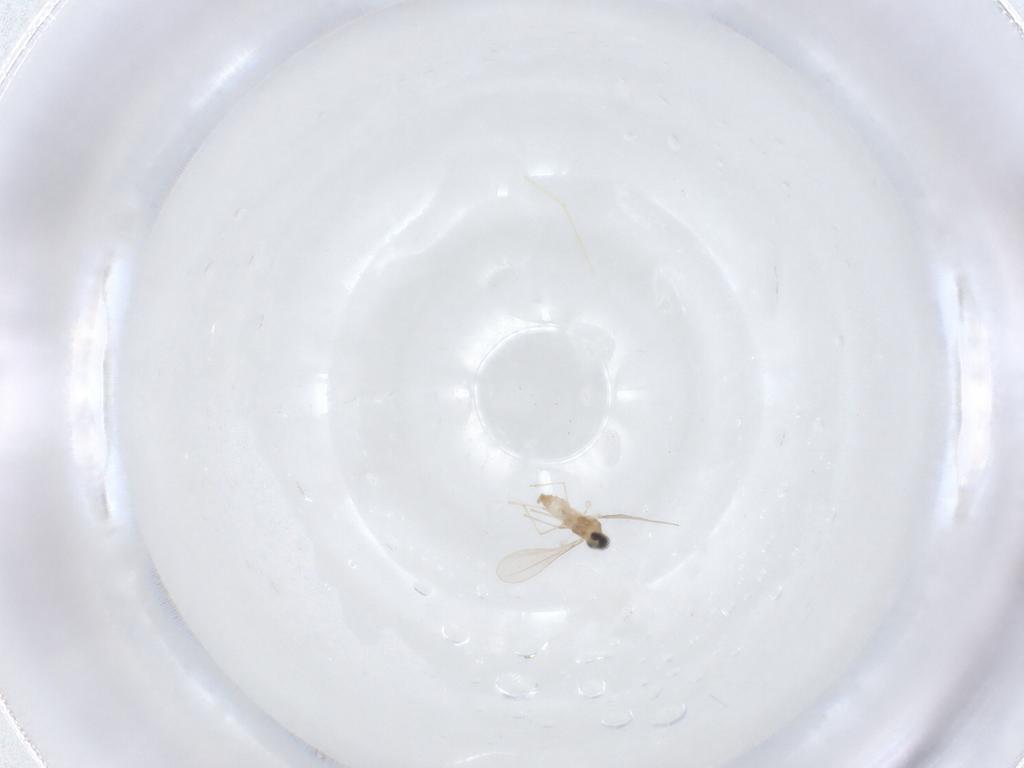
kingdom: Animalia
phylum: Arthropoda
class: Insecta
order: Diptera
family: Cecidomyiidae
